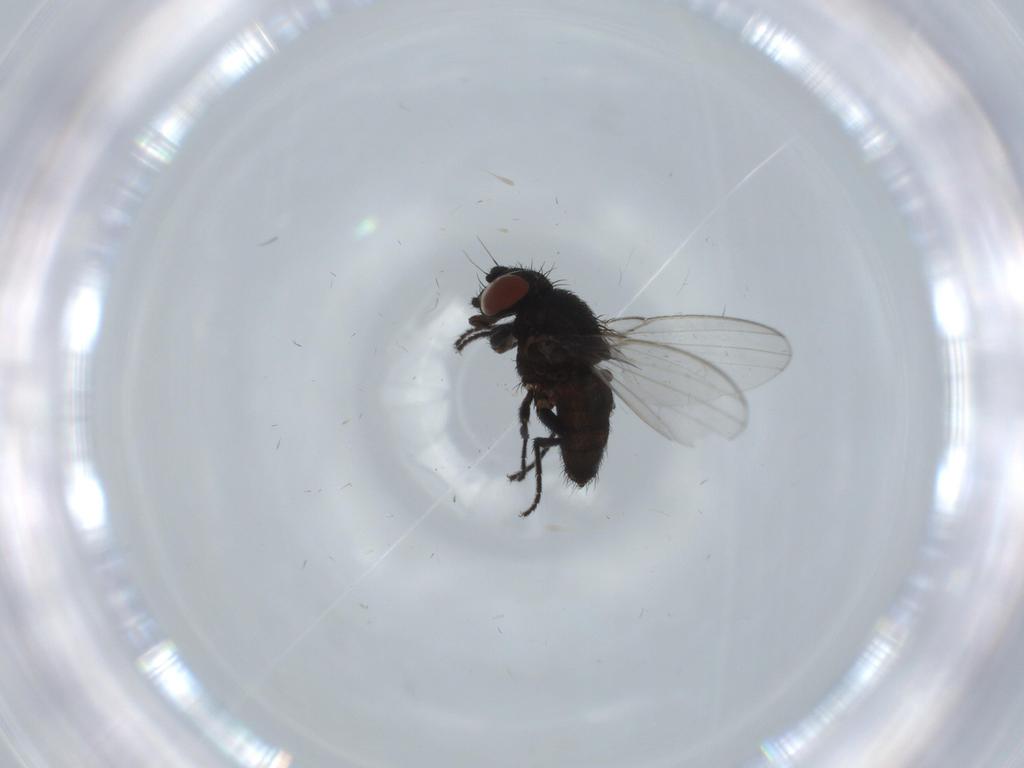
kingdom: Animalia
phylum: Arthropoda
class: Insecta
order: Diptera
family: Milichiidae
